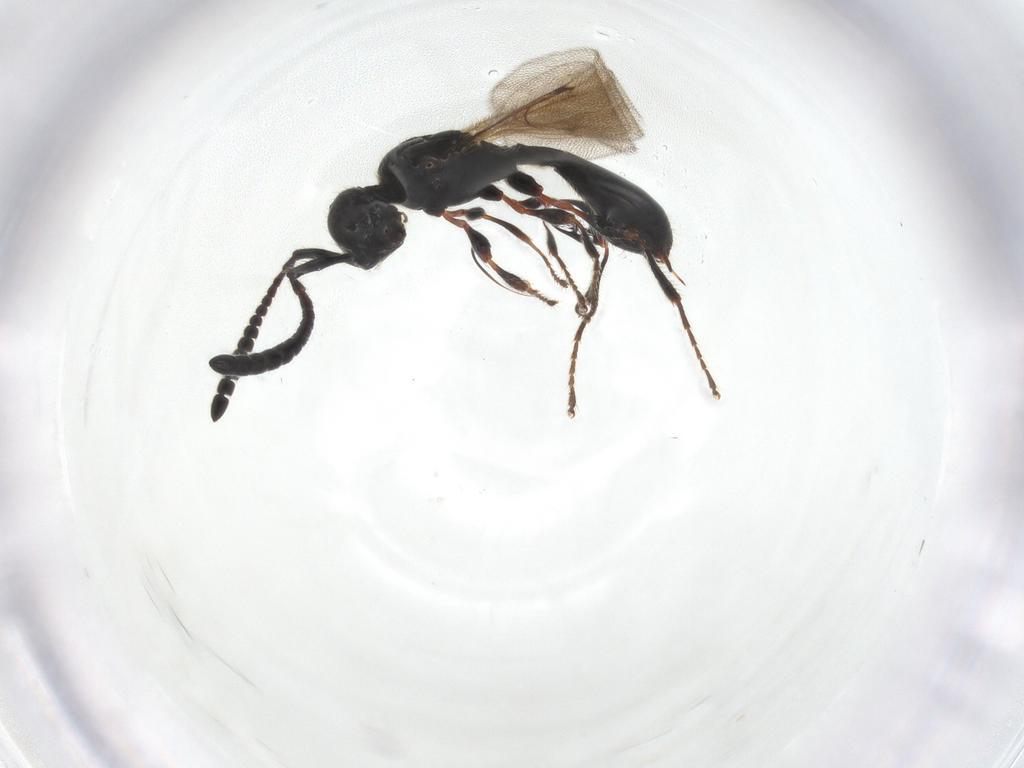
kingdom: Animalia
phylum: Arthropoda
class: Insecta
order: Hymenoptera
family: Diapriidae
